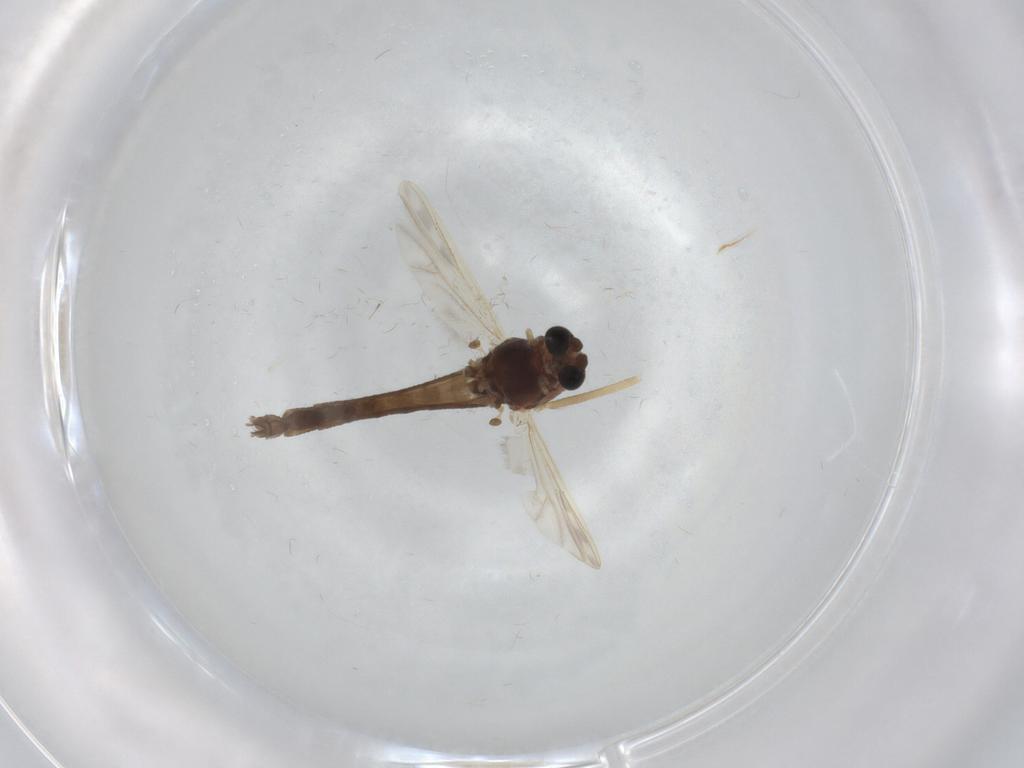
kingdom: Animalia
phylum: Arthropoda
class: Insecta
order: Diptera
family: Chironomidae
